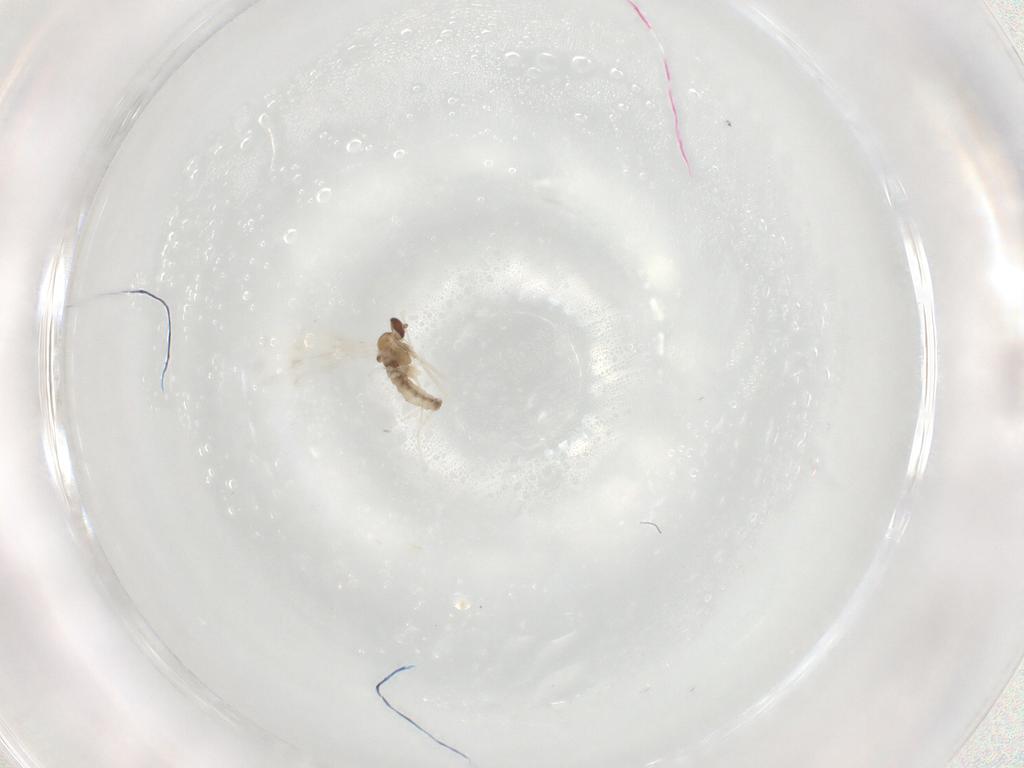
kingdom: Animalia
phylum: Arthropoda
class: Insecta
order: Diptera
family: Cecidomyiidae
